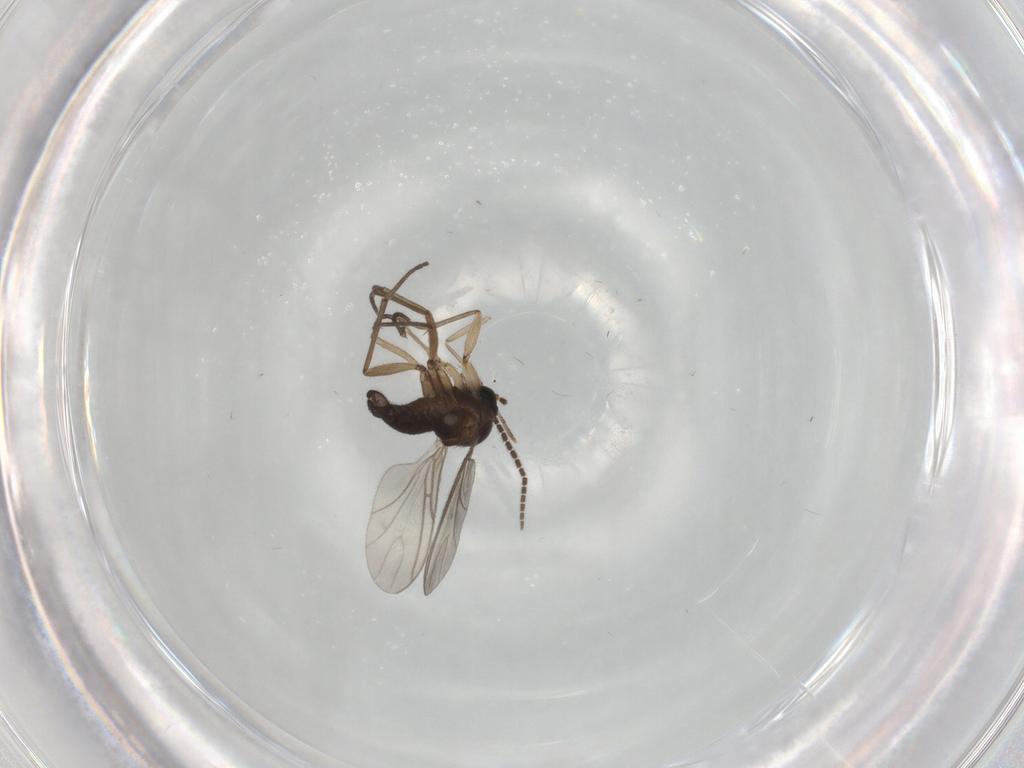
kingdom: Animalia
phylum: Arthropoda
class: Insecta
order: Diptera
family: Sciaridae
